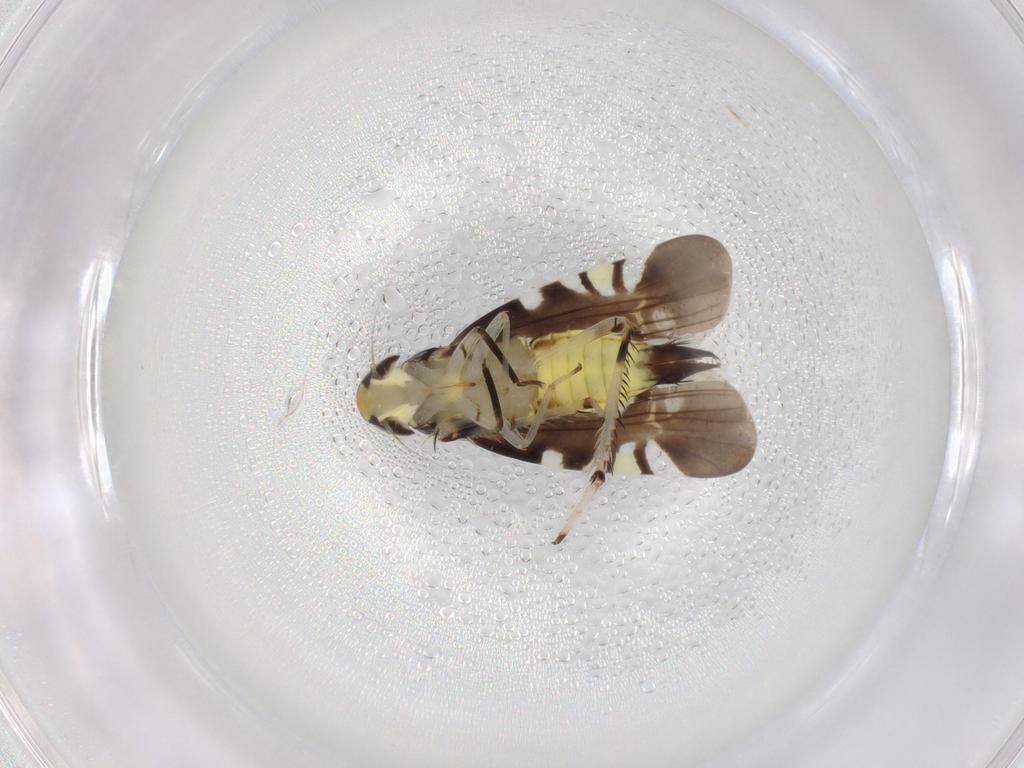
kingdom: Animalia
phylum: Arthropoda
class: Insecta
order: Hemiptera
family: Cicadellidae
